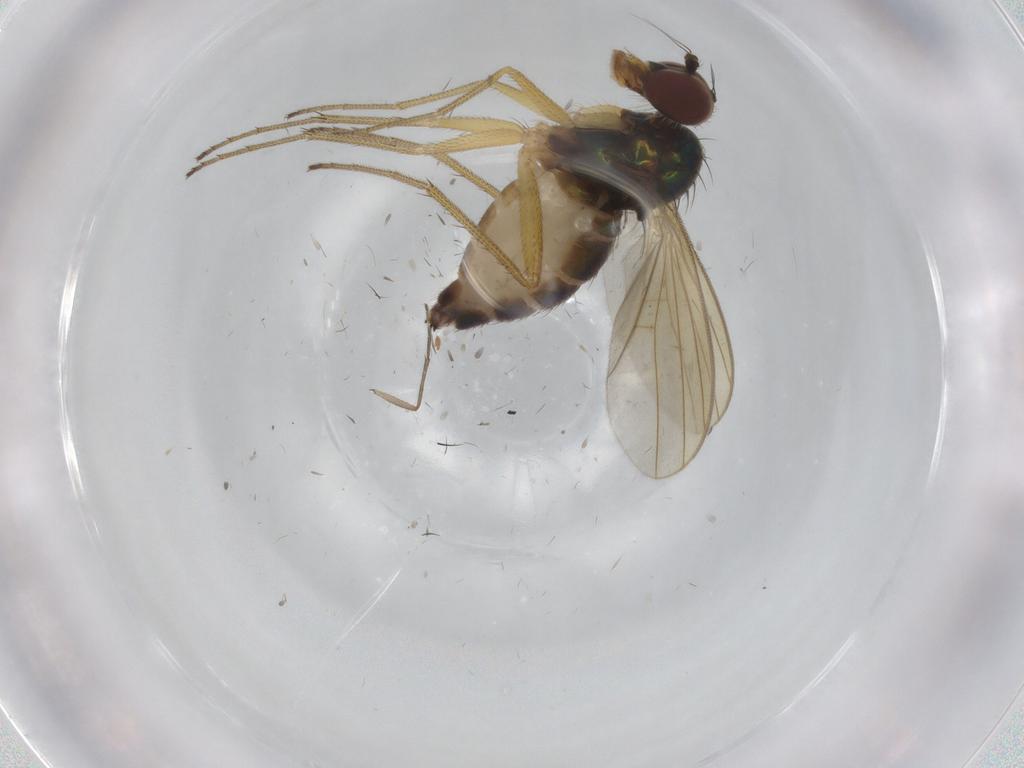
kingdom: Animalia
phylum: Arthropoda
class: Insecta
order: Diptera
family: Dolichopodidae
